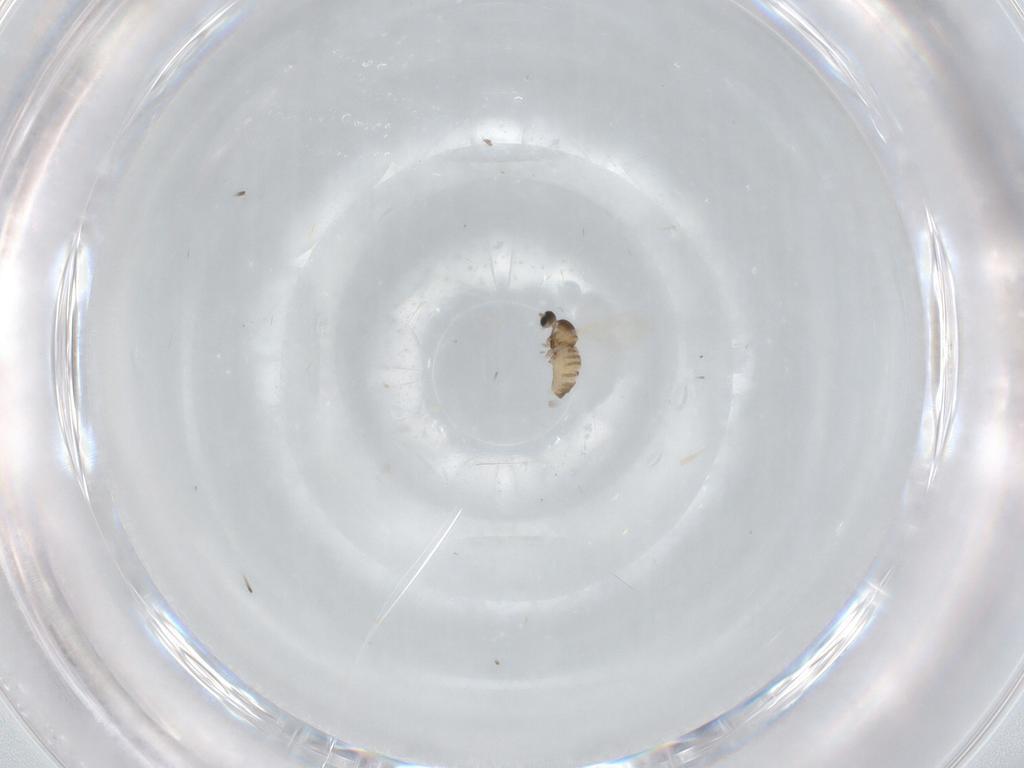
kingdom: Animalia
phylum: Arthropoda
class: Insecta
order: Diptera
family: Cecidomyiidae
